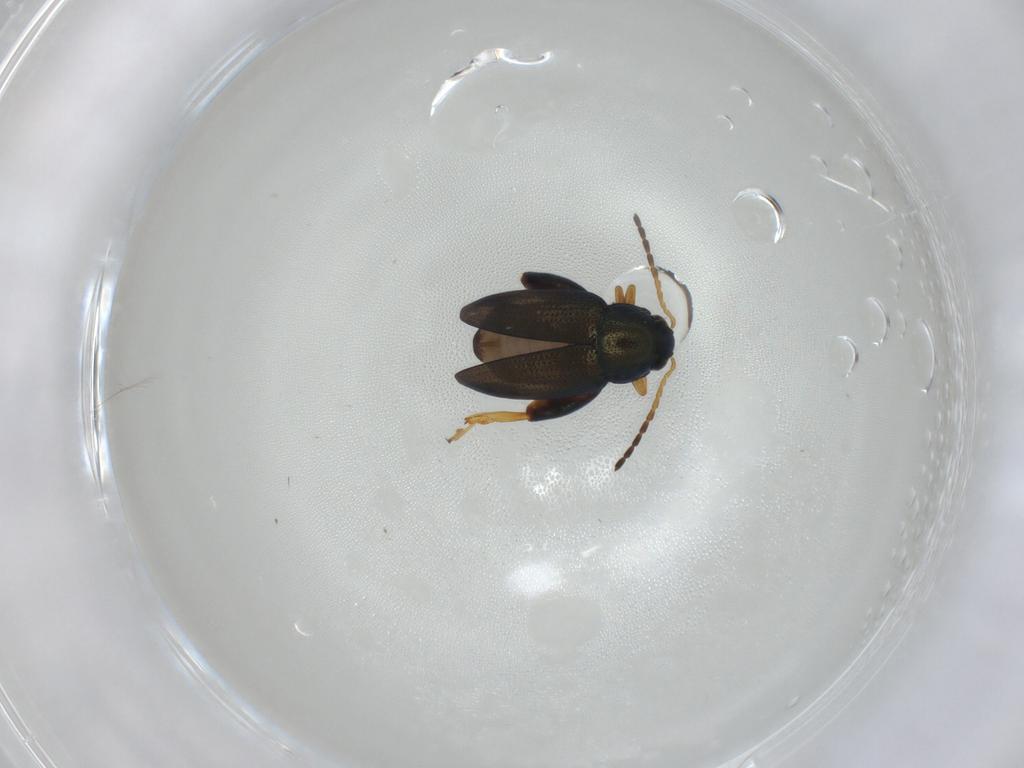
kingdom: Animalia
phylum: Arthropoda
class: Insecta
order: Coleoptera
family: Chrysomelidae
